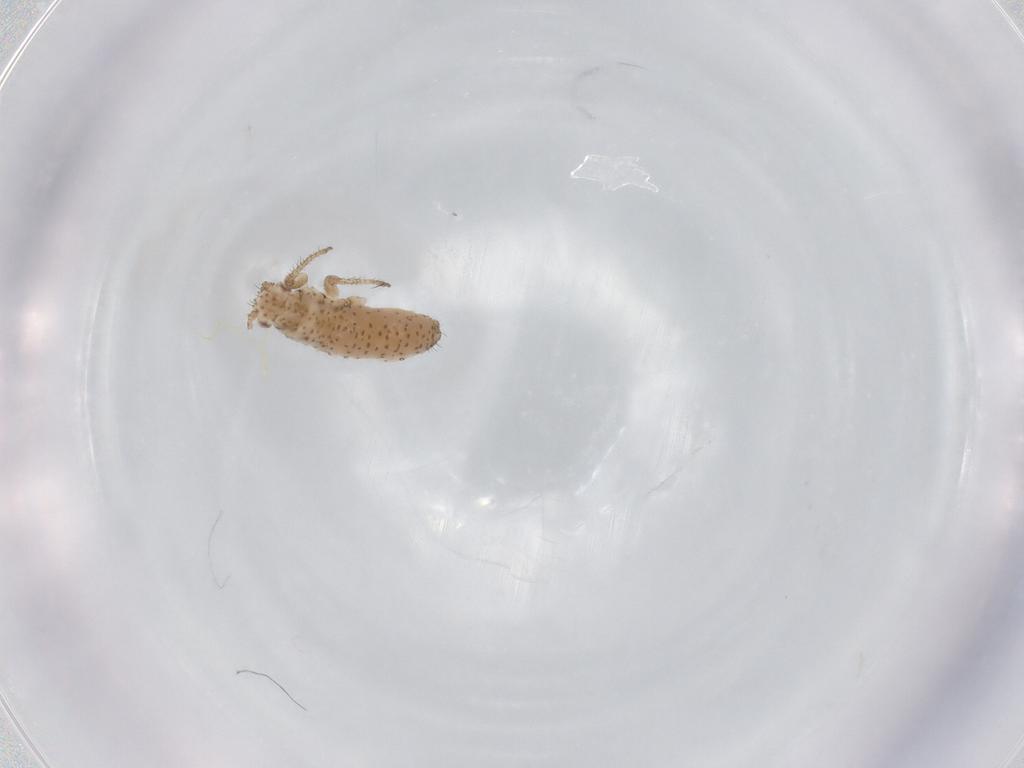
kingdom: Animalia
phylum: Arthropoda
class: Insecta
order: Hemiptera
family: Aphididae
